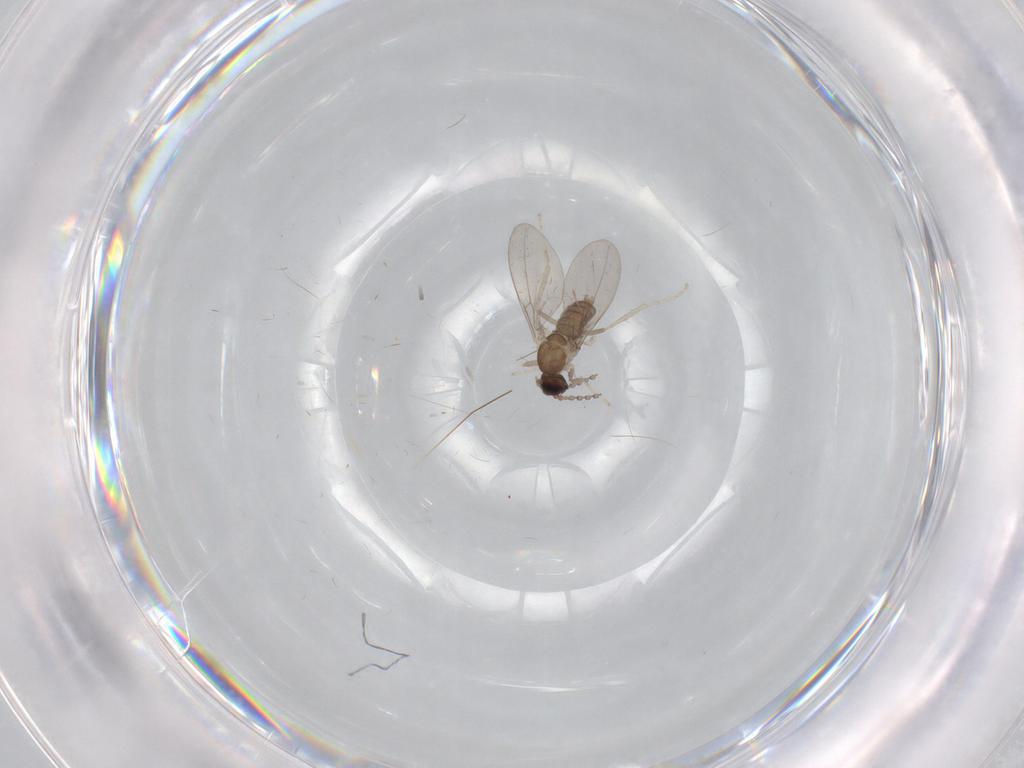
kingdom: Animalia
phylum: Arthropoda
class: Insecta
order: Diptera
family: Cecidomyiidae
